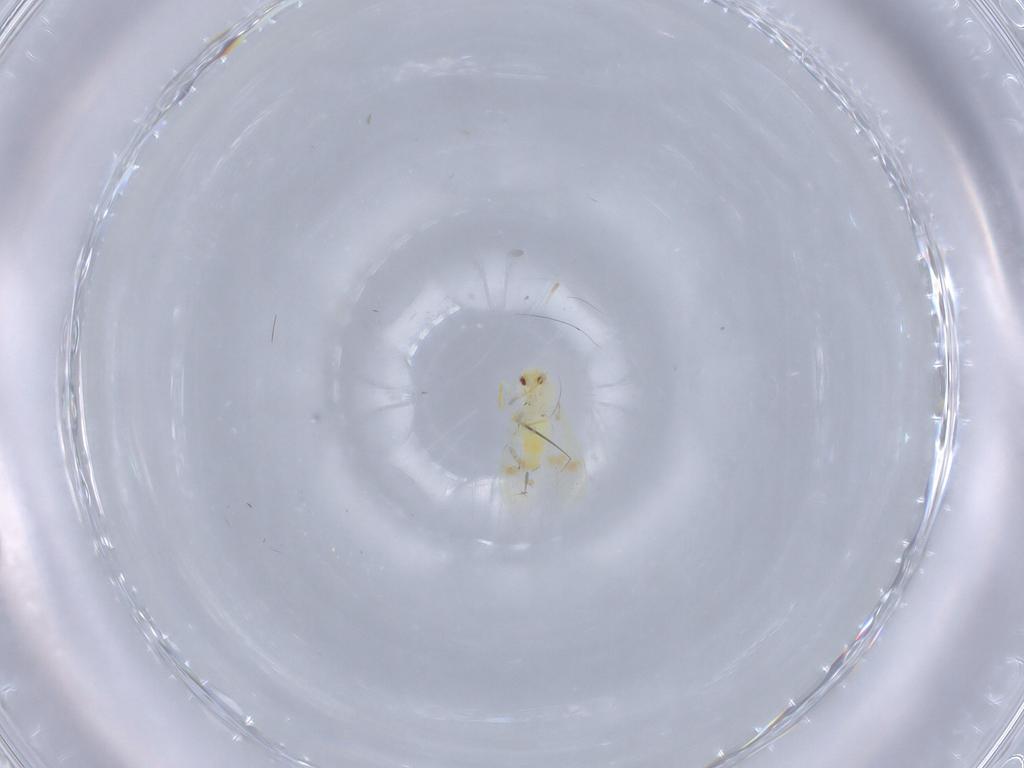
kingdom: Animalia
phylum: Arthropoda
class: Insecta
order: Hemiptera
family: Aleyrodidae
